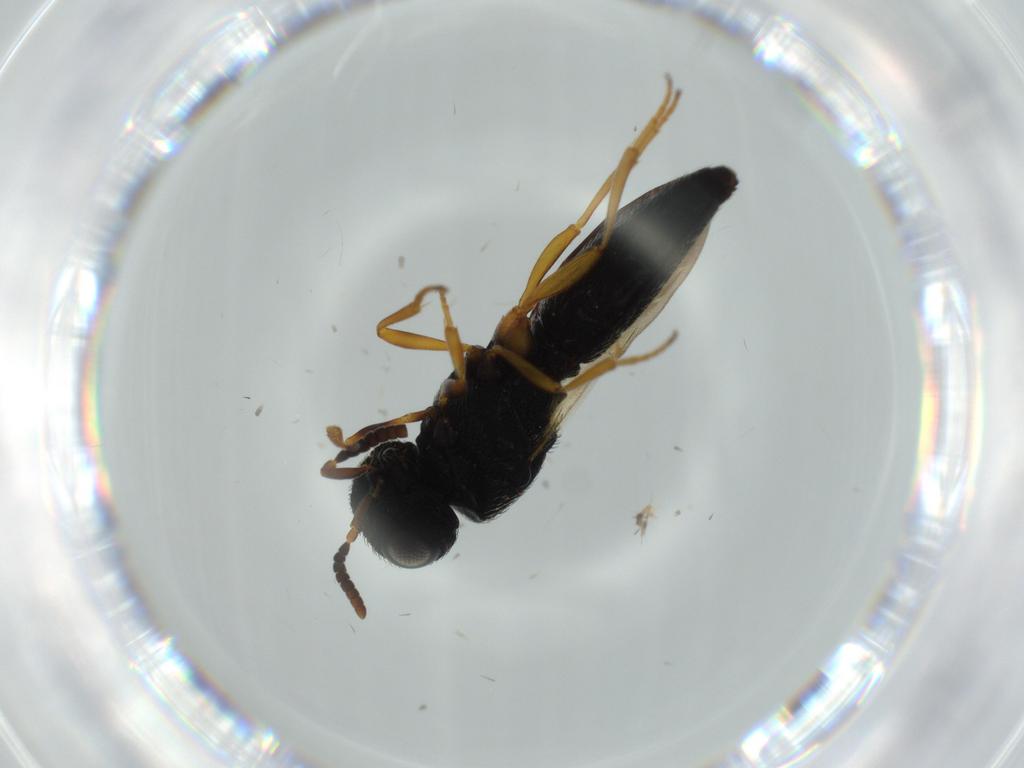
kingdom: Animalia
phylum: Arthropoda
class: Insecta
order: Hymenoptera
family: Scelionidae
